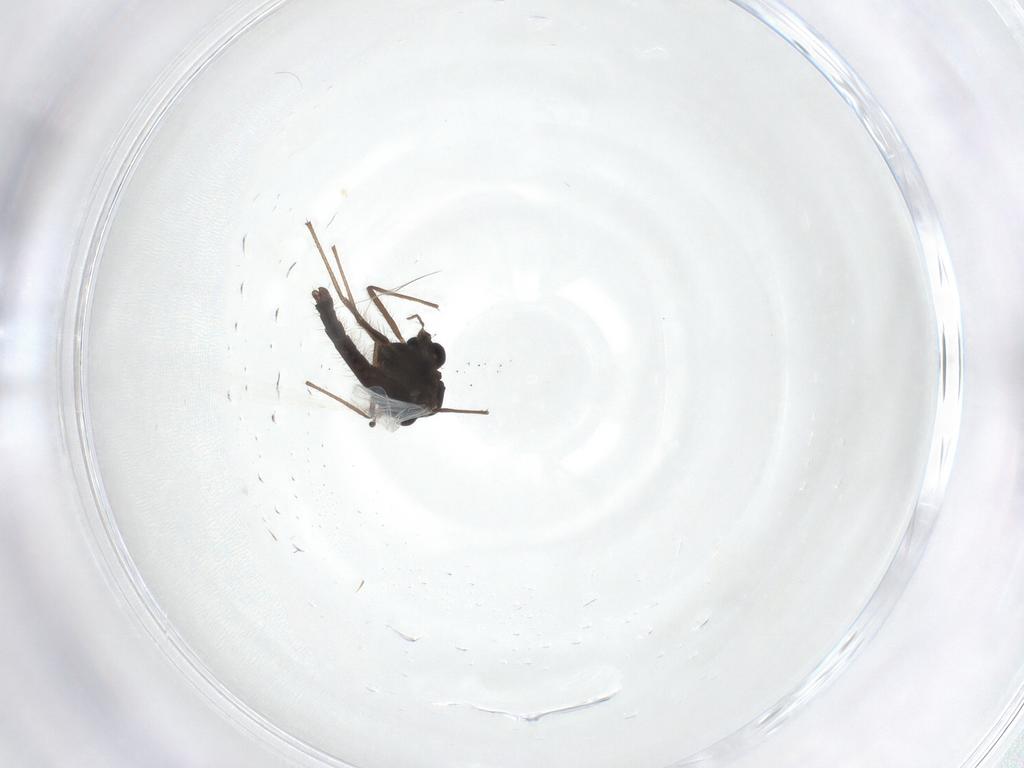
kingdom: Animalia
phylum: Arthropoda
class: Insecta
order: Diptera
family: Chironomidae
